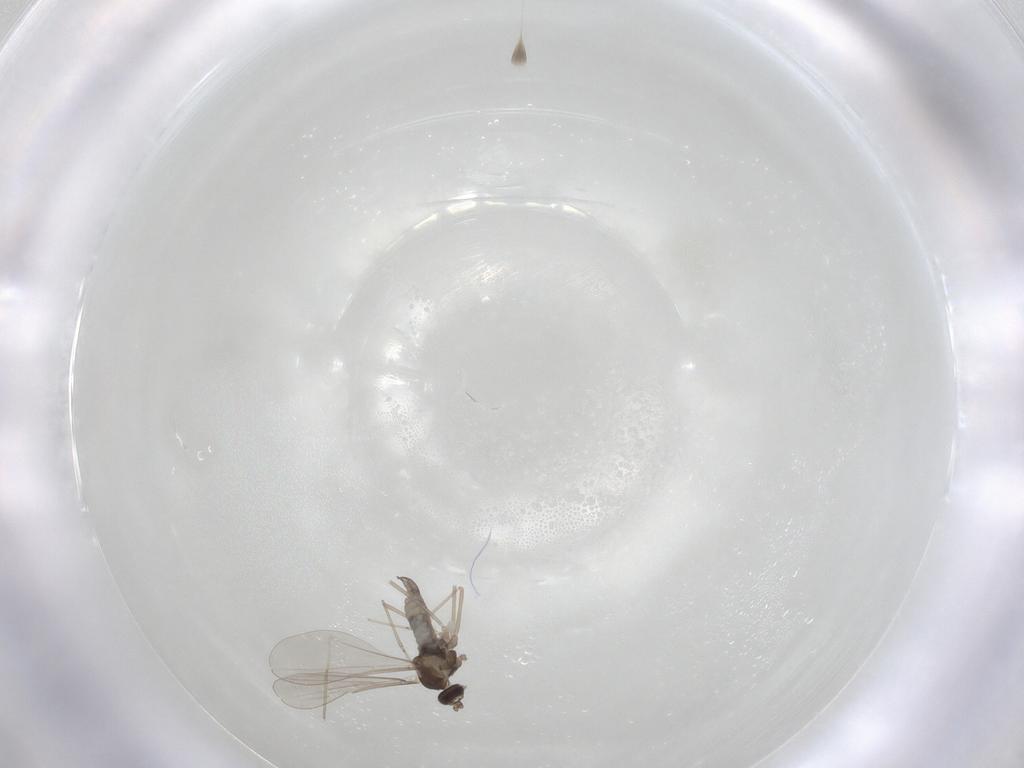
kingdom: Animalia
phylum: Arthropoda
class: Insecta
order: Diptera
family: Cecidomyiidae
